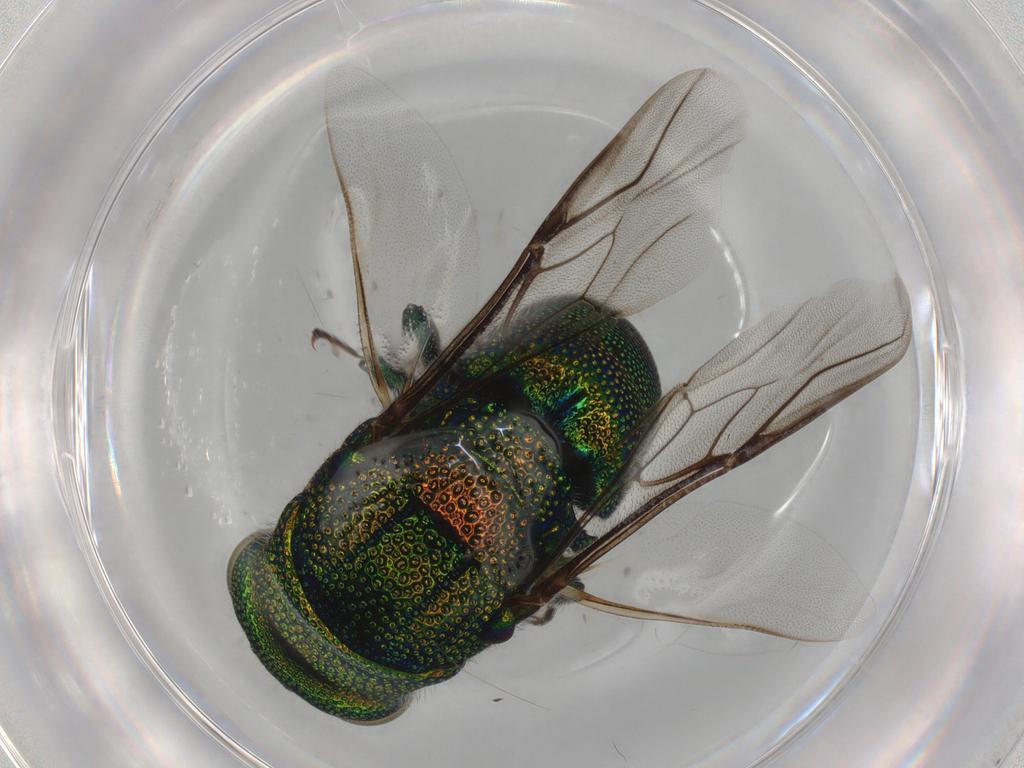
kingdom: Animalia
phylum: Arthropoda
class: Insecta
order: Hymenoptera
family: Chrysididae
